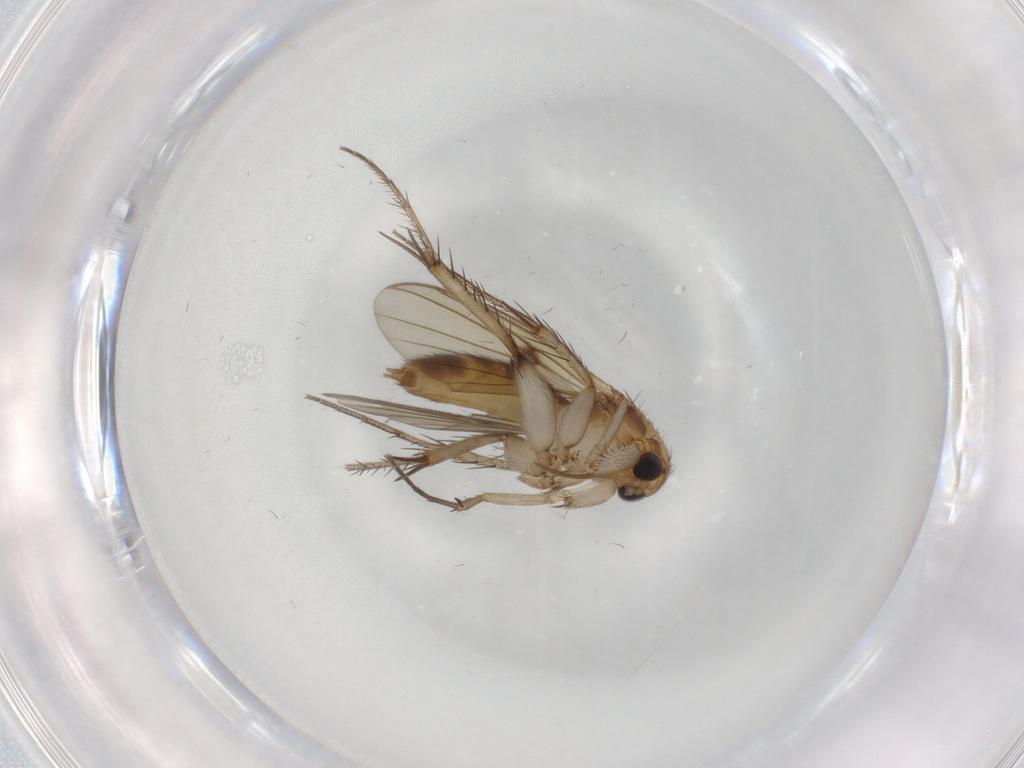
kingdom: Animalia
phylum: Arthropoda
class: Insecta
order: Diptera
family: Mycetophilidae
